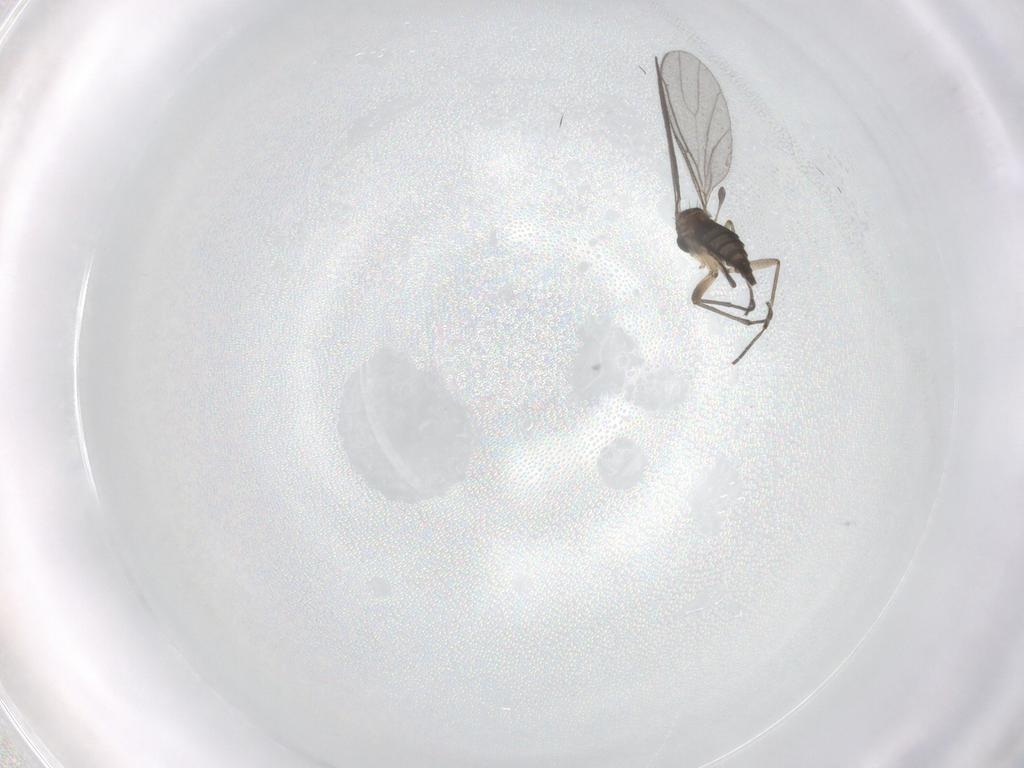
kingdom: Animalia
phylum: Arthropoda
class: Insecta
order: Diptera
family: Sciaridae
